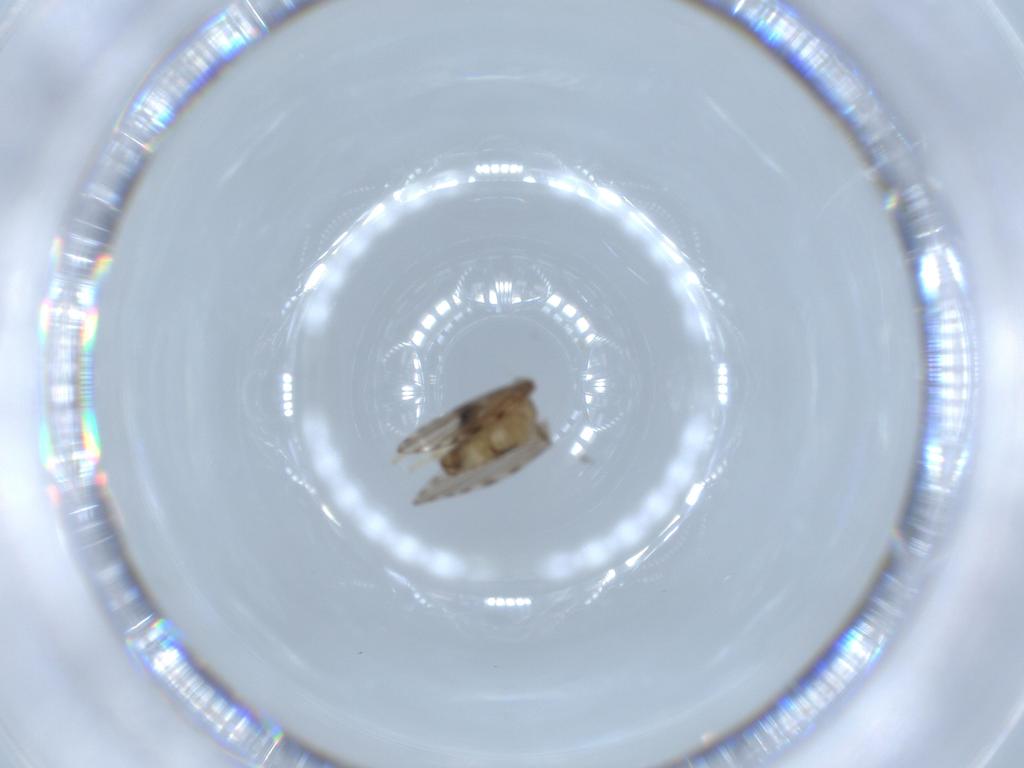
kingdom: Animalia
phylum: Arthropoda
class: Insecta
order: Diptera
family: Psychodidae
